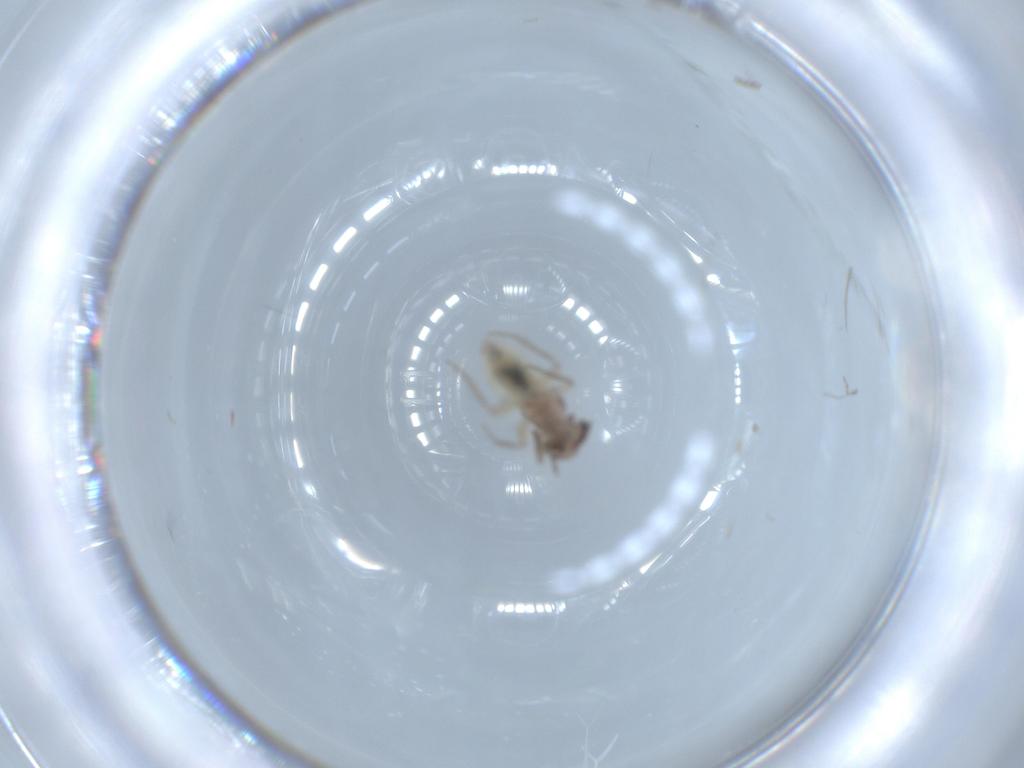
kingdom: Animalia
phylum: Arthropoda
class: Insecta
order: Psocodea
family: Lepidopsocidae
